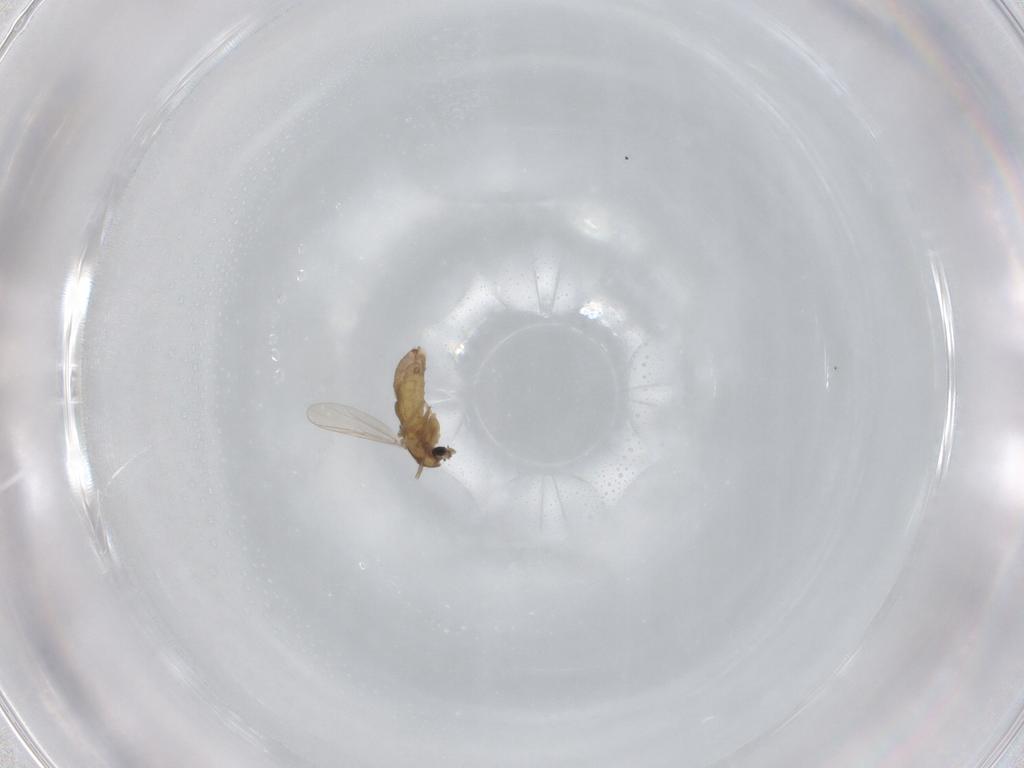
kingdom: Animalia
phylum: Arthropoda
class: Insecta
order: Diptera
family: Chironomidae
